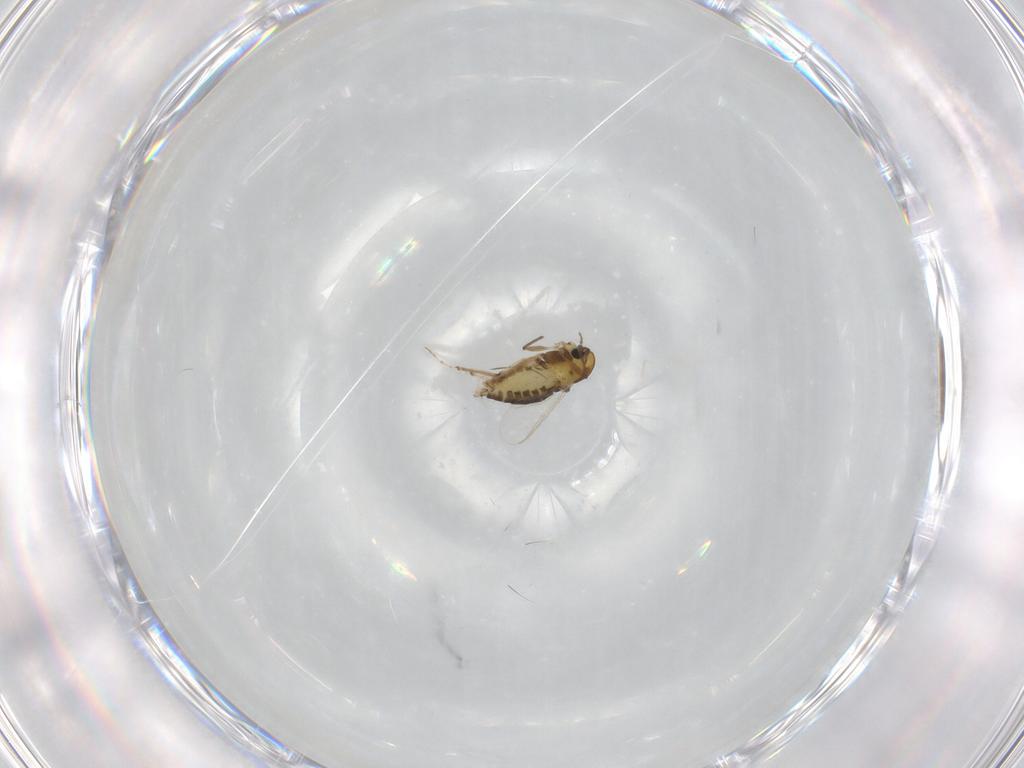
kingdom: Animalia
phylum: Arthropoda
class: Insecta
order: Diptera
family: Chironomidae
